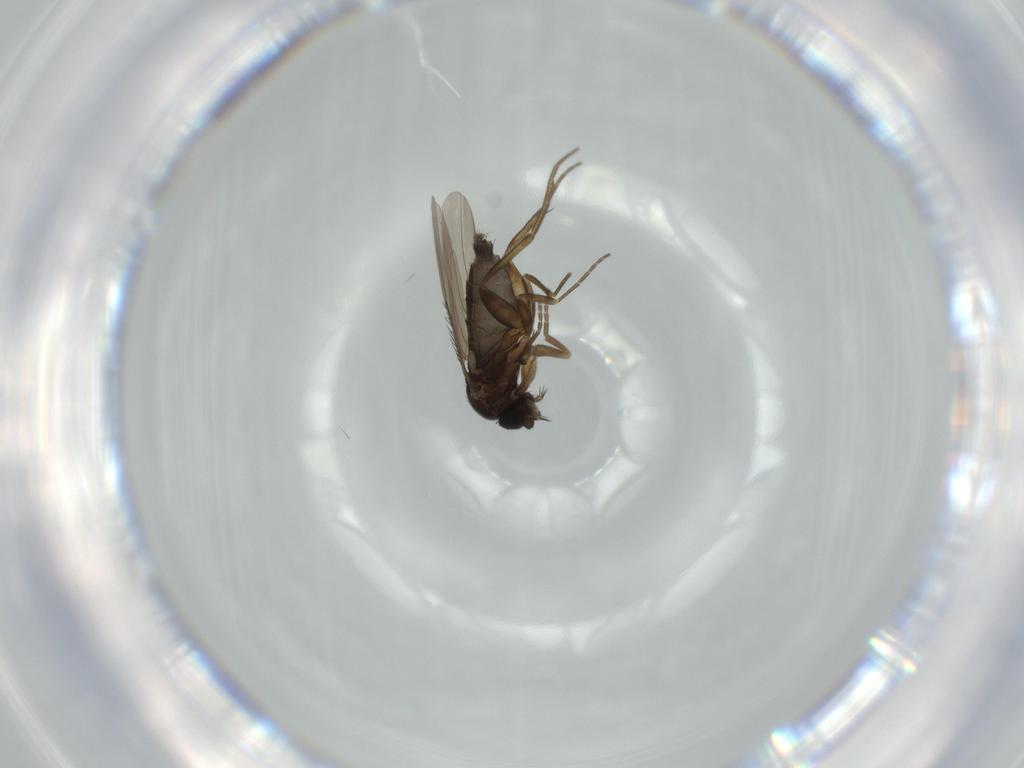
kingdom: Animalia
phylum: Arthropoda
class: Insecta
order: Diptera
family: Phoridae
